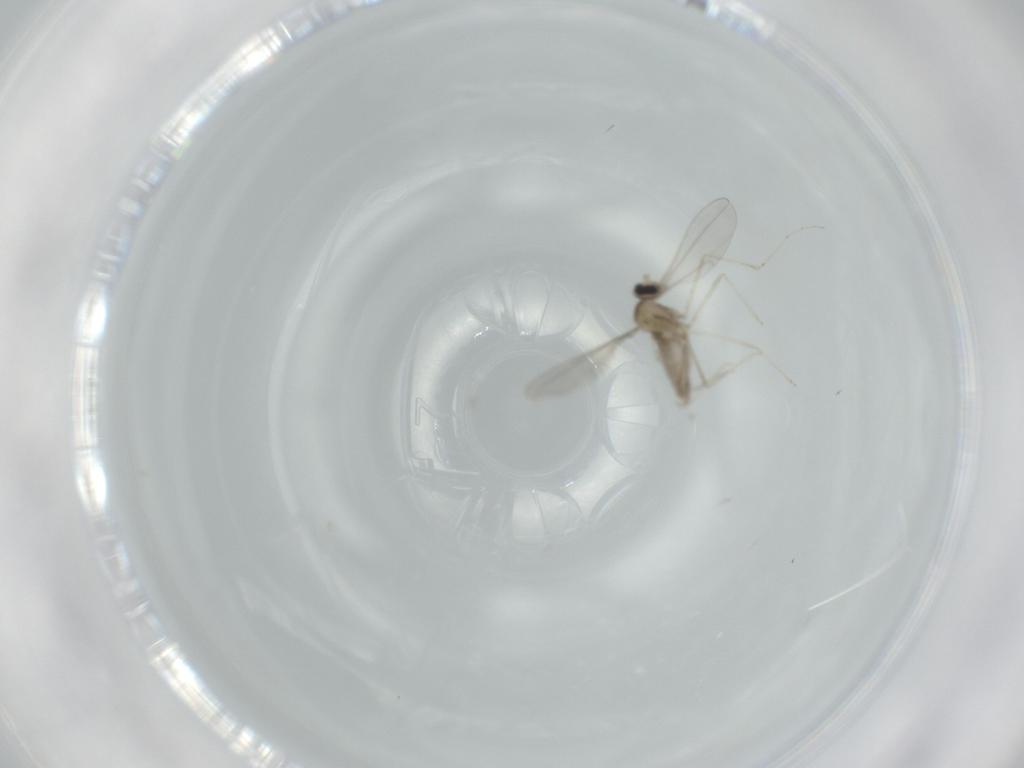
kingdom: Animalia
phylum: Arthropoda
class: Insecta
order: Diptera
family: Cecidomyiidae
